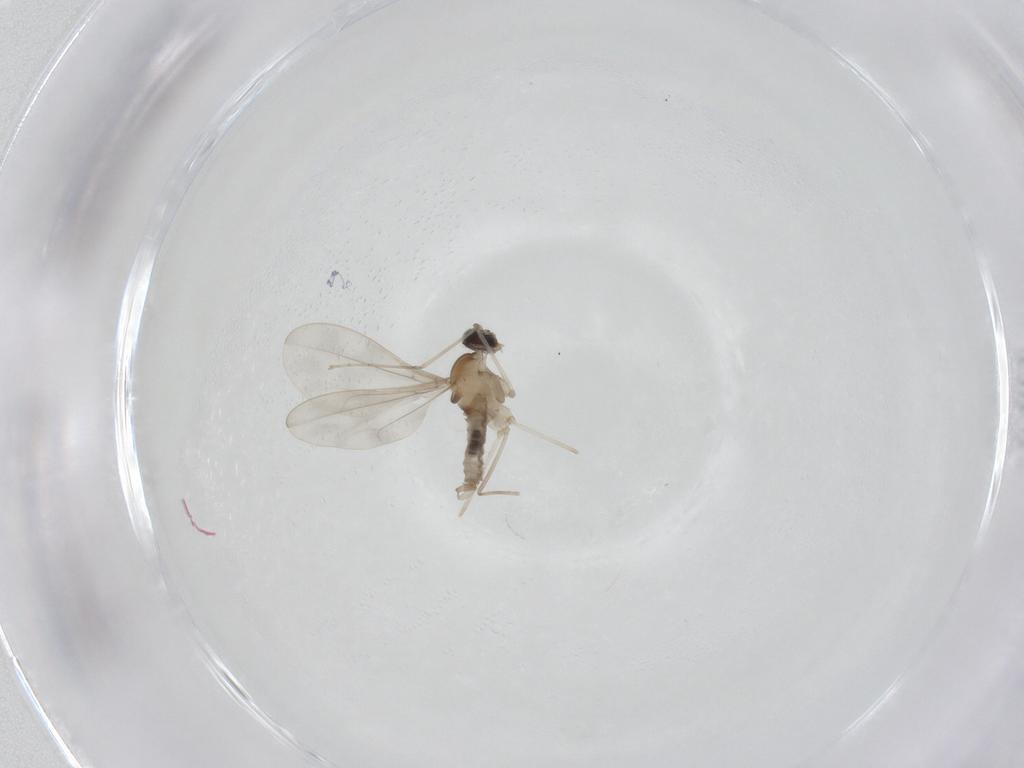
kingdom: Animalia
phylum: Arthropoda
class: Insecta
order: Diptera
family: Cecidomyiidae
